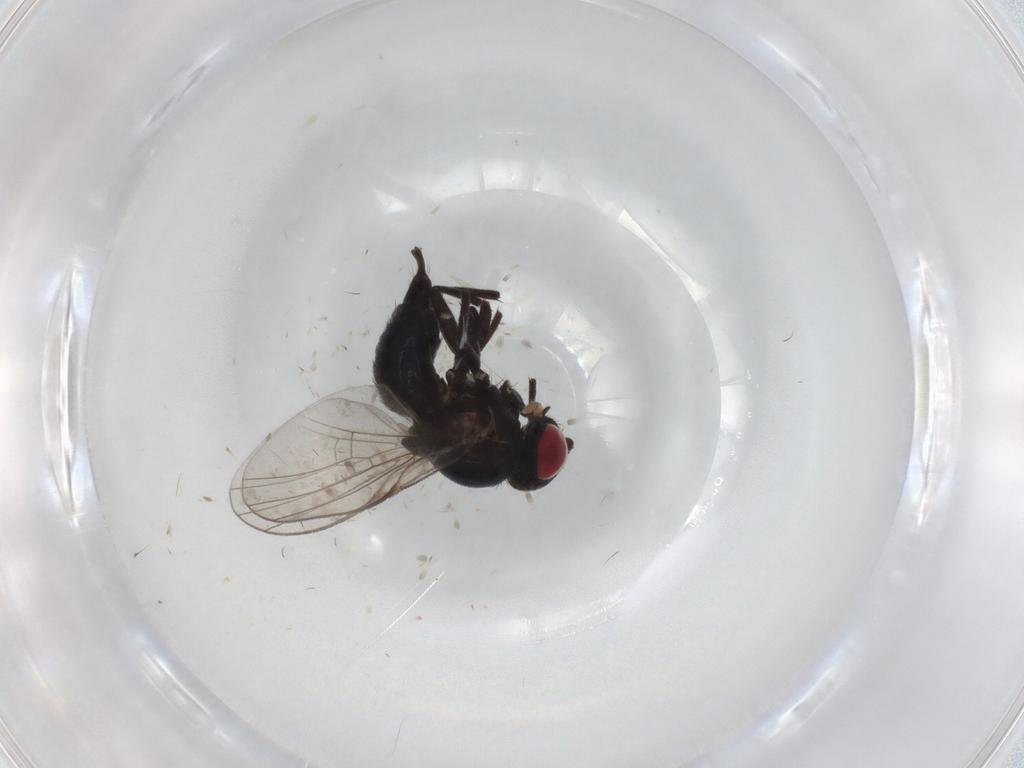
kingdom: Animalia
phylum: Arthropoda
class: Insecta
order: Diptera
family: Agromyzidae
